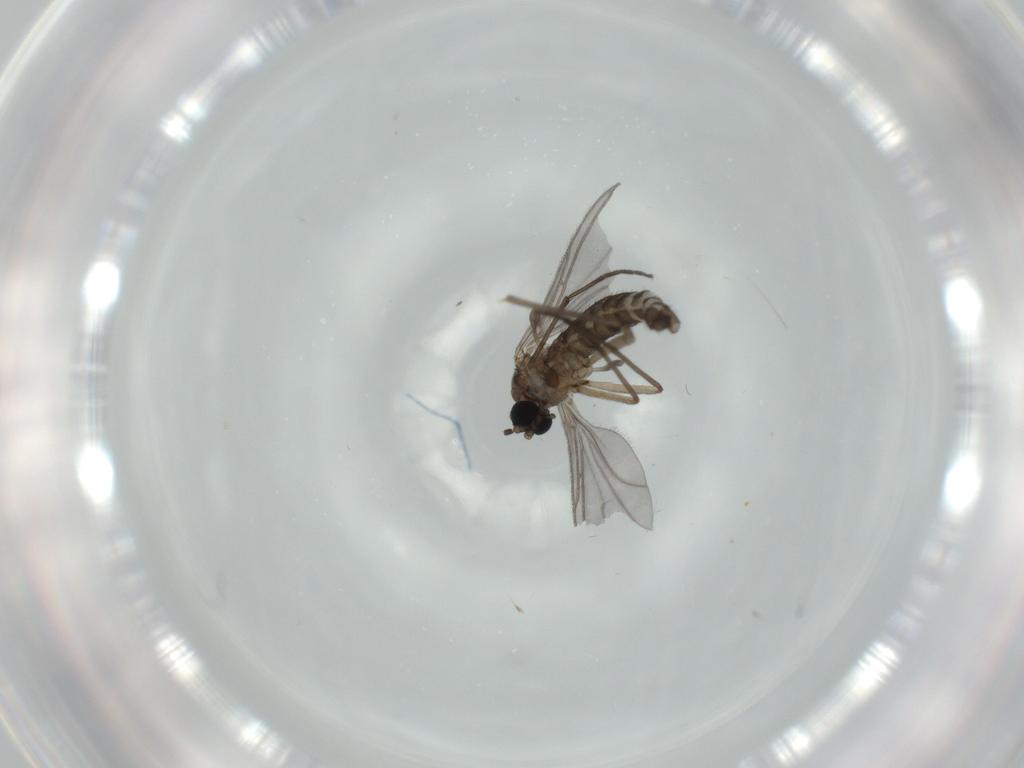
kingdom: Animalia
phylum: Arthropoda
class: Insecta
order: Diptera
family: Sciaridae
